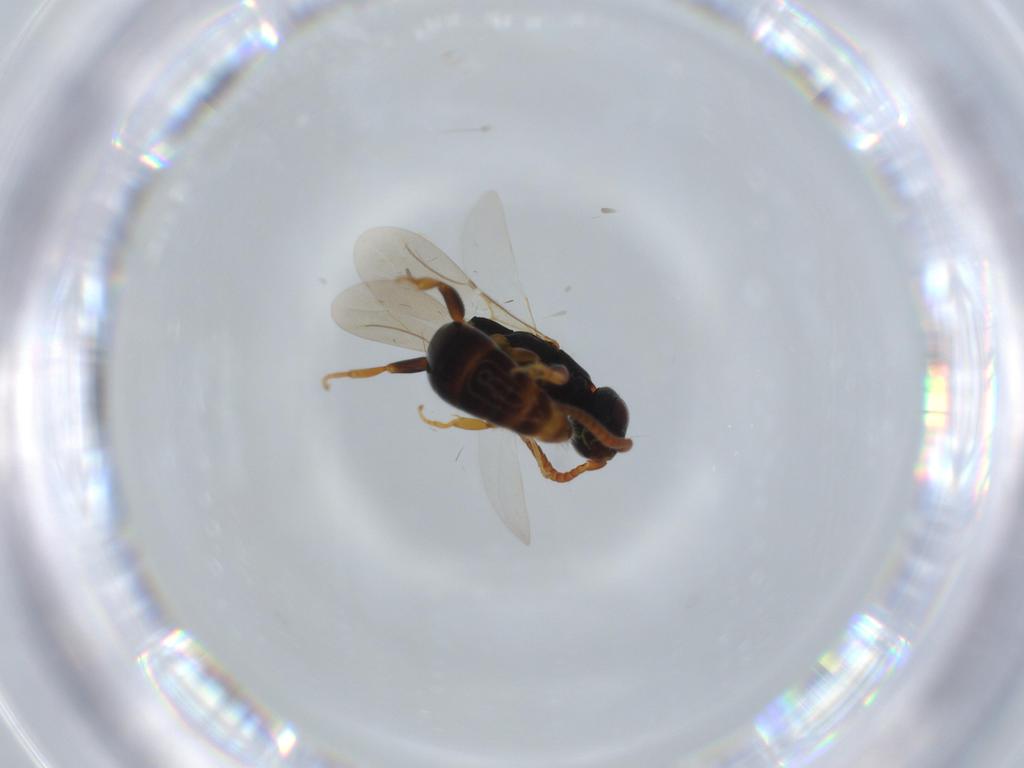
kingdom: Animalia
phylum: Arthropoda
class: Insecta
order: Hymenoptera
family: Bethylidae
